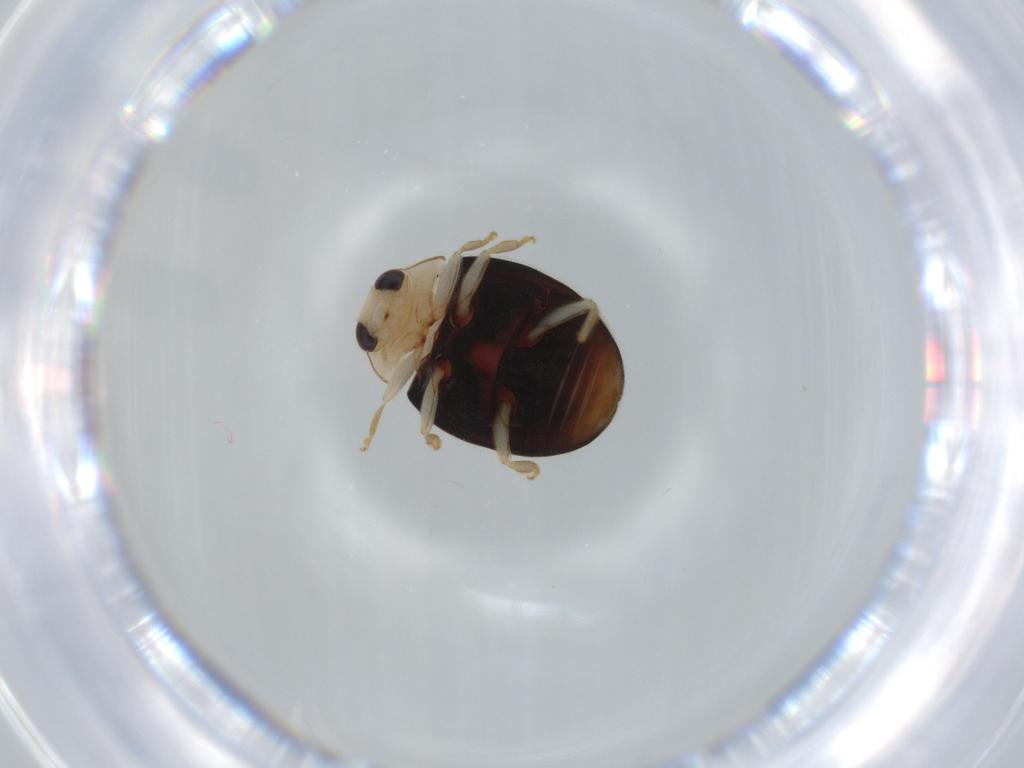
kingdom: Animalia
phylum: Arthropoda
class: Insecta
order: Coleoptera
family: Coccinellidae
